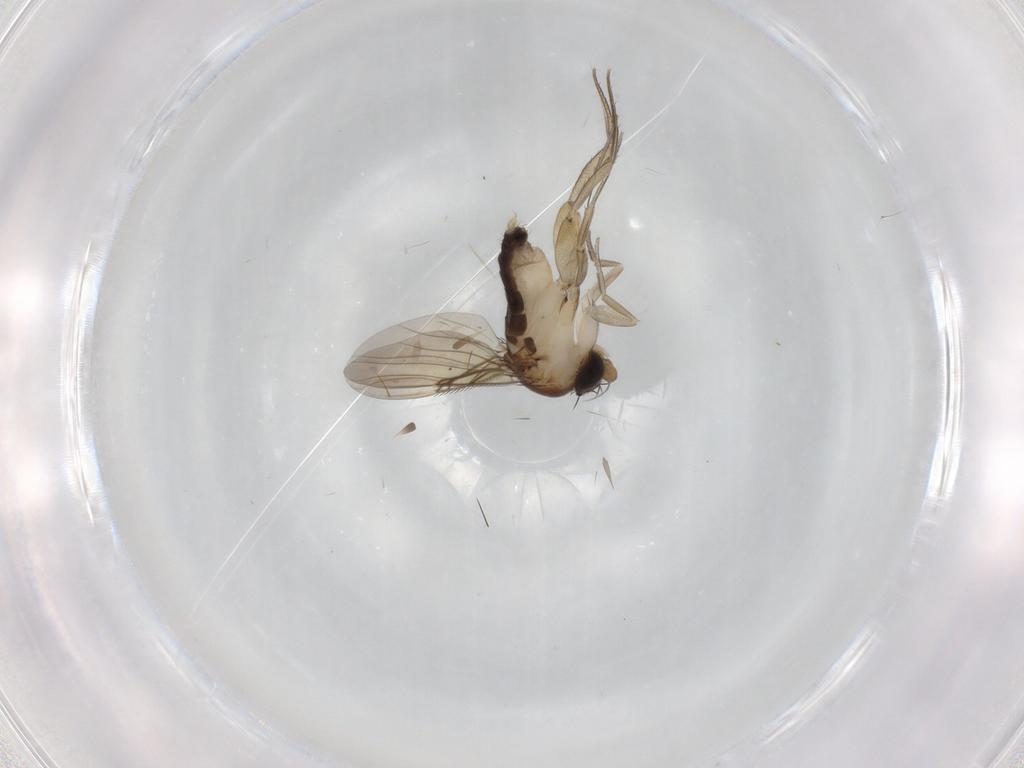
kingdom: Animalia
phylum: Arthropoda
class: Insecta
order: Diptera
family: Phoridae
